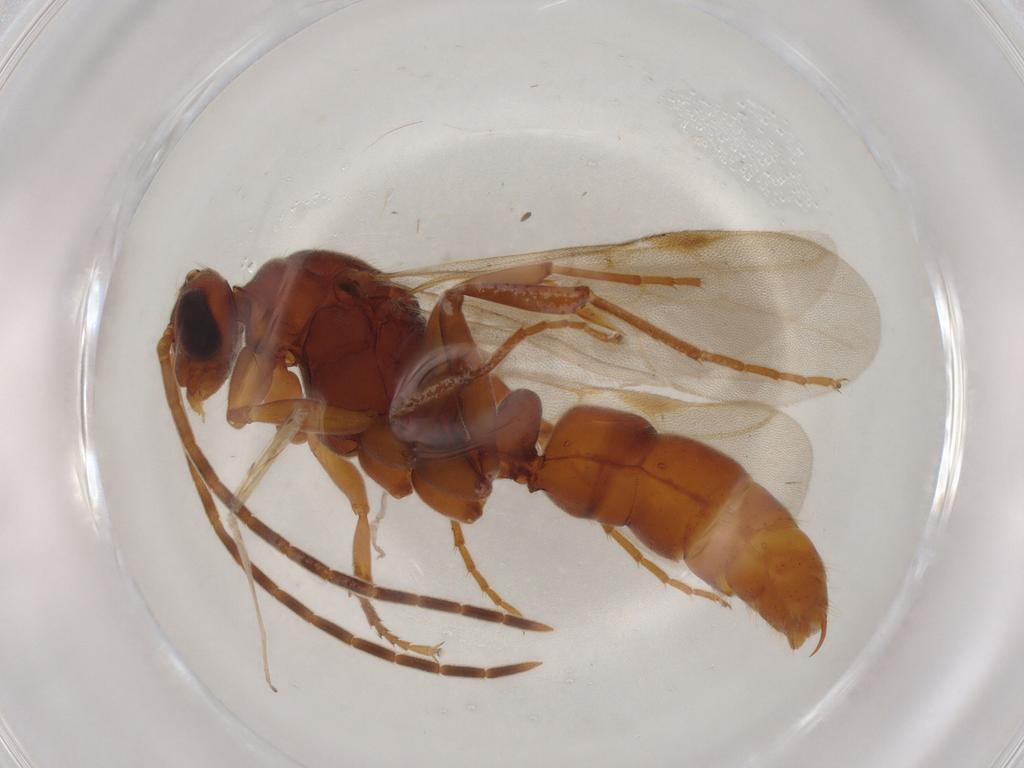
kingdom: Animalia
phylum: Arthropoda
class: Insecta
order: Hymenoptera
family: Formicidae
